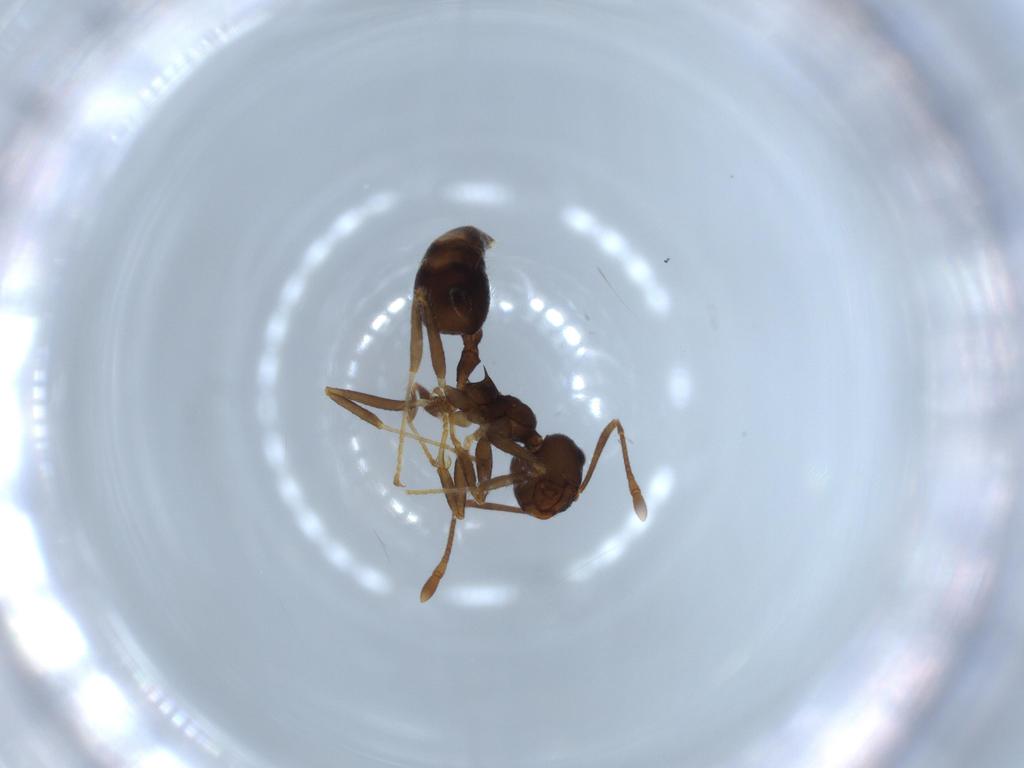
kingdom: Animalia
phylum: Arthropoda
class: Insecta
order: Hymenoptera
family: Formicidae
